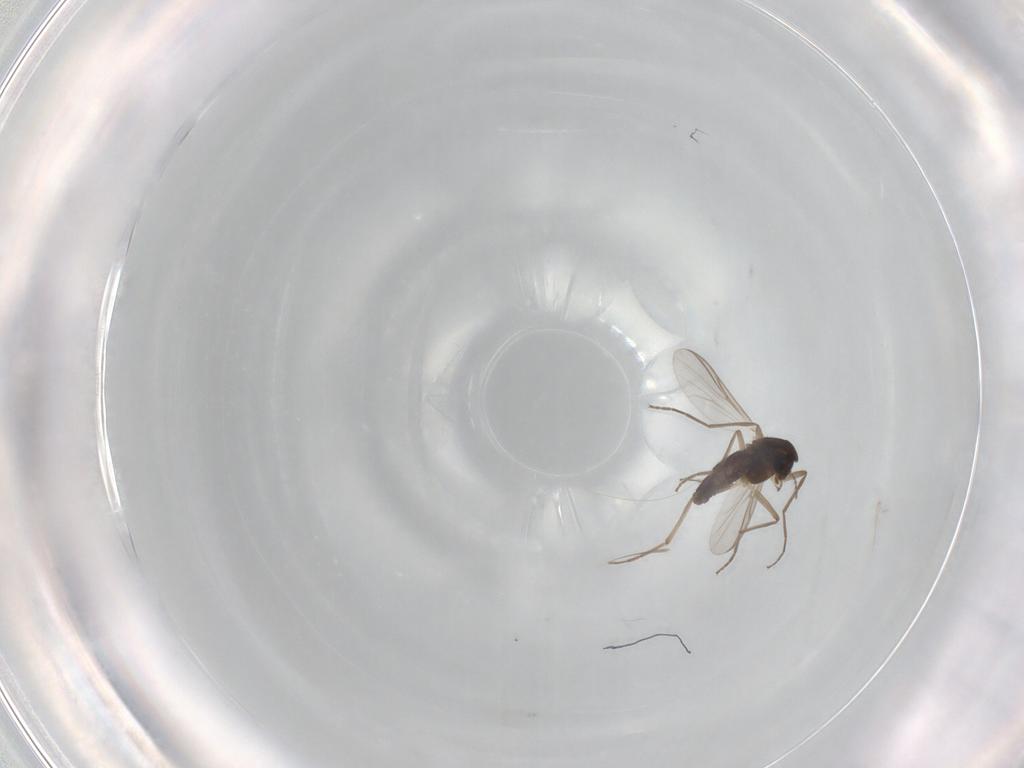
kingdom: Animalia
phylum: Arthropoda
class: Insecta
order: Diptera
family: Chironomidae
